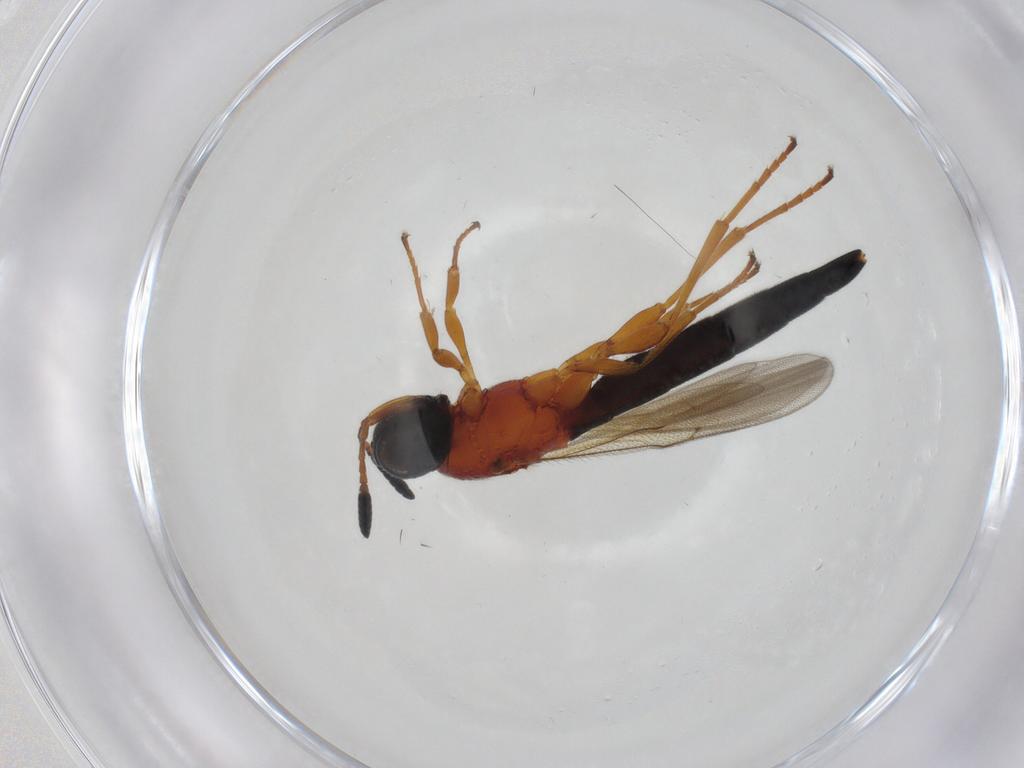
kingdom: Animalia
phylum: Arthropoda
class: Insecta
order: Hymenoptera
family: Scelionidae
